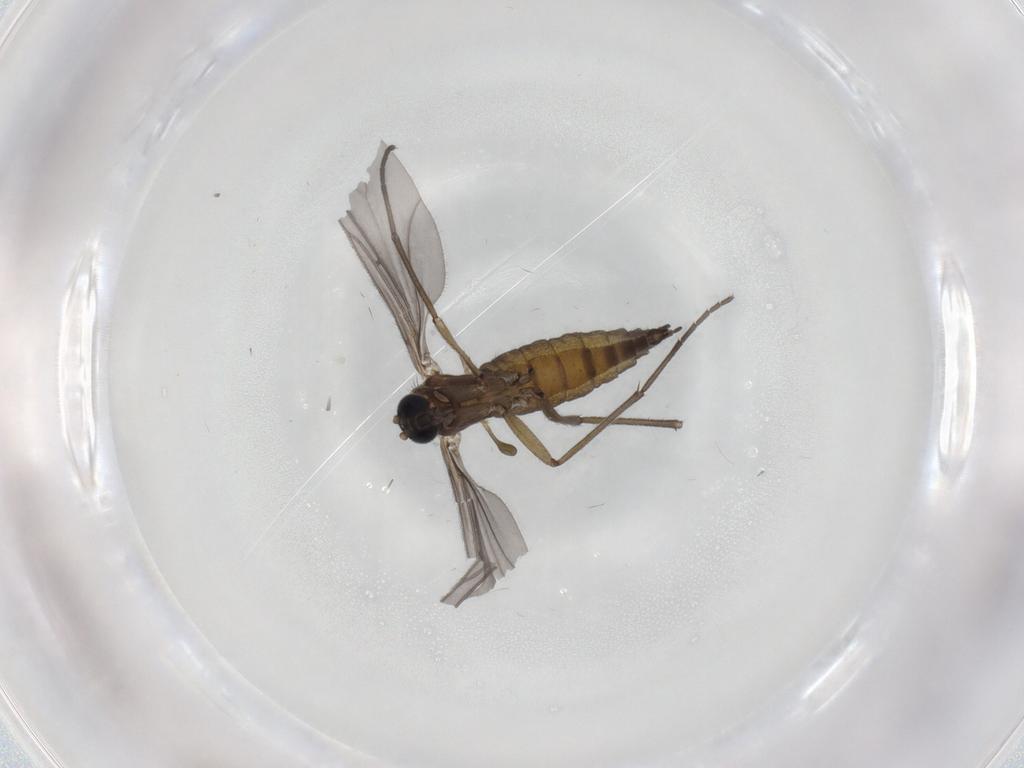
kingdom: Animalia
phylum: Arthropoda
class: Insecta
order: Diptera
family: Sciaridae
